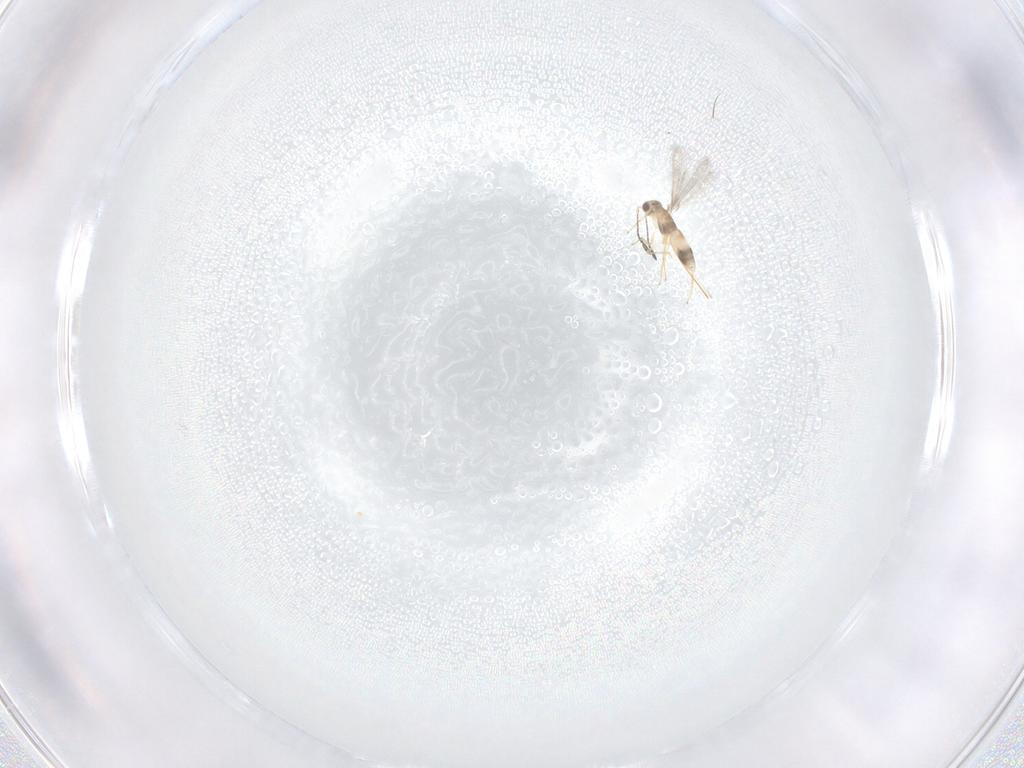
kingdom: Animalia
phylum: Arthropoda
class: Insecta
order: Hymenoptera
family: Mymaridae
